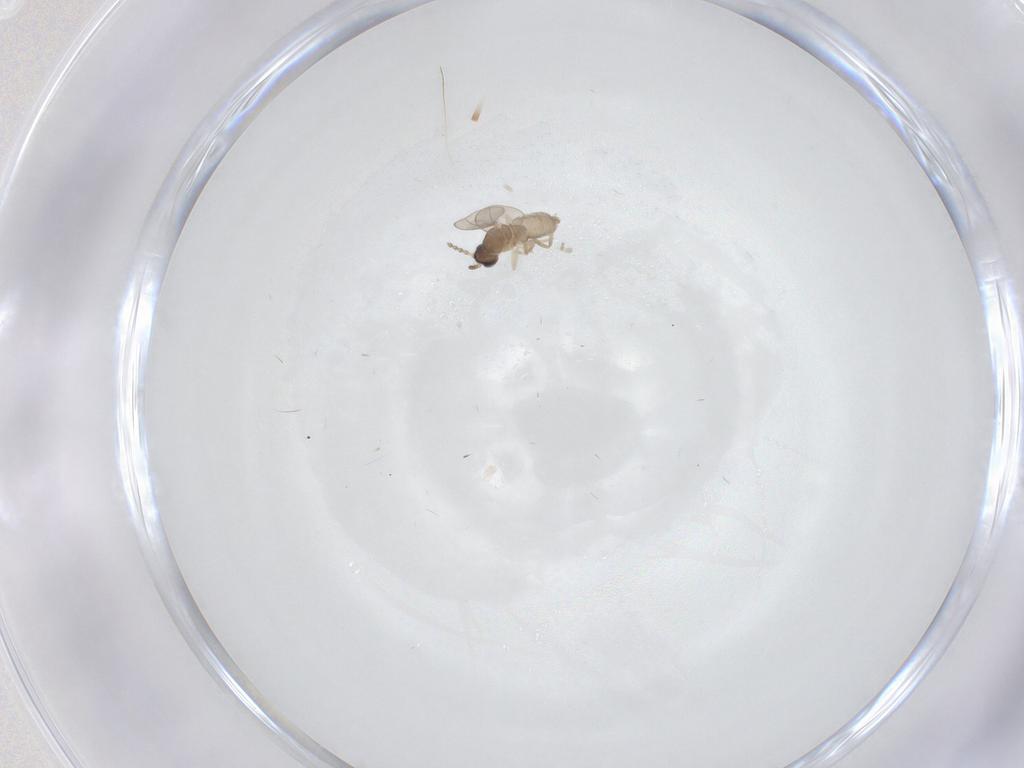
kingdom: Animalia
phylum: Arthropoda
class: Insecta
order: Diptera
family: Cecidomyiidae
